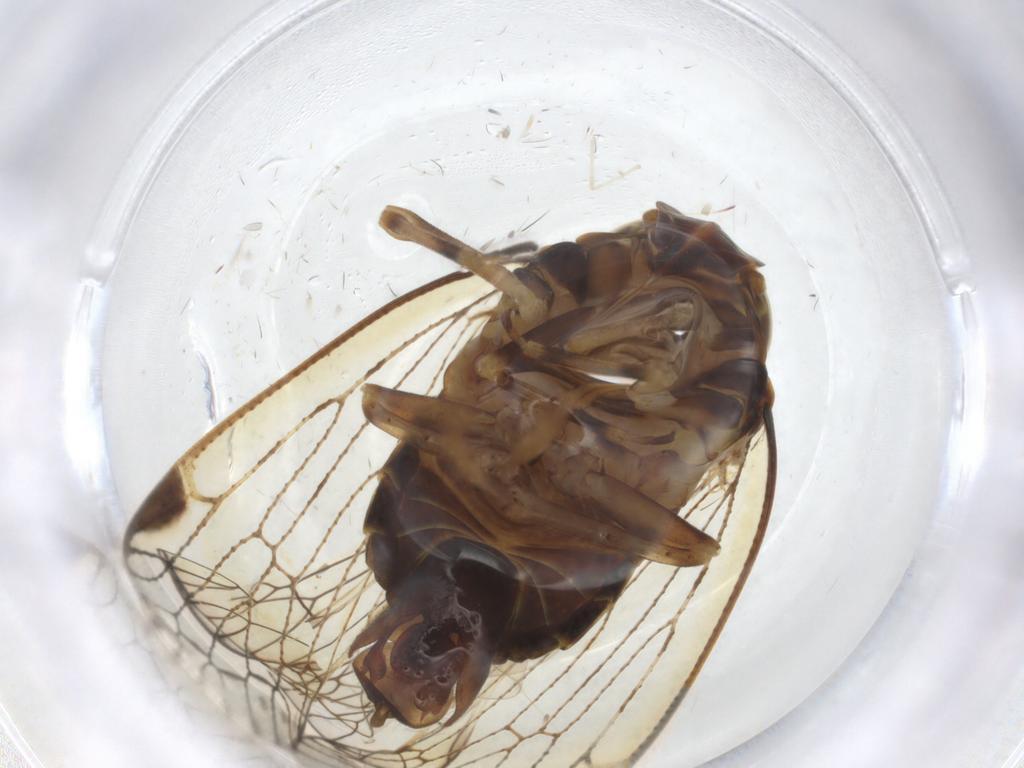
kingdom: Animalia
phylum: Arthropoda
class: Insecta
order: Hemiptera
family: Cixiidae
